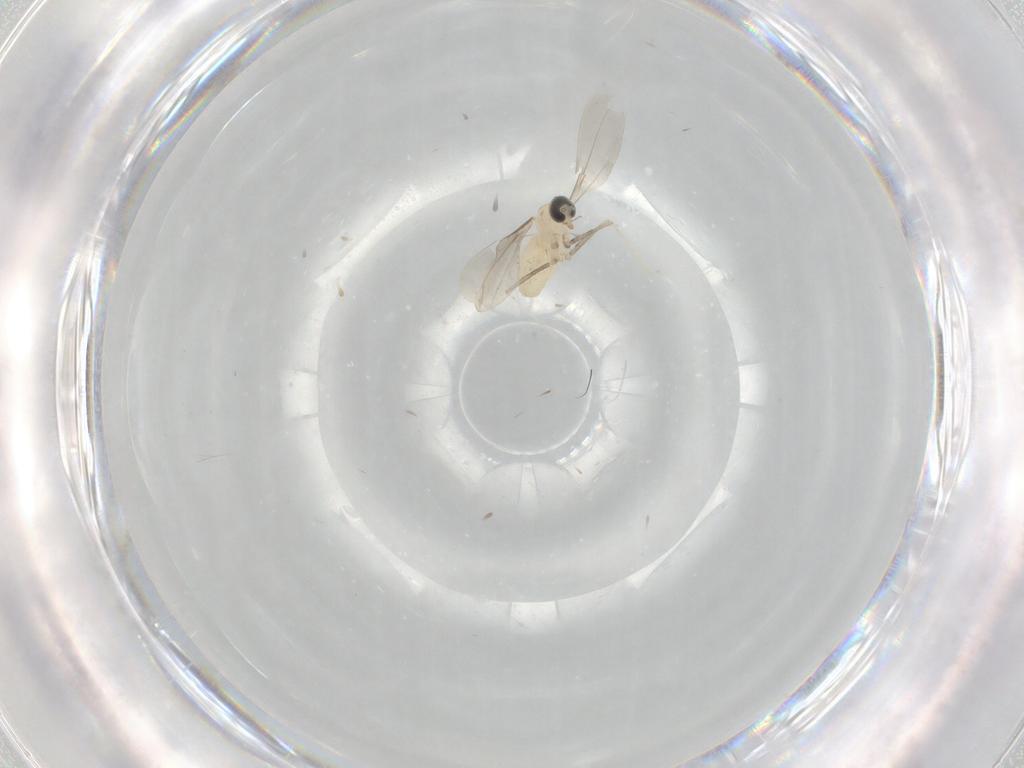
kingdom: Animalia
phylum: Arthropoda
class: Insecta
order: Diptera
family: Cecidomyiidae
